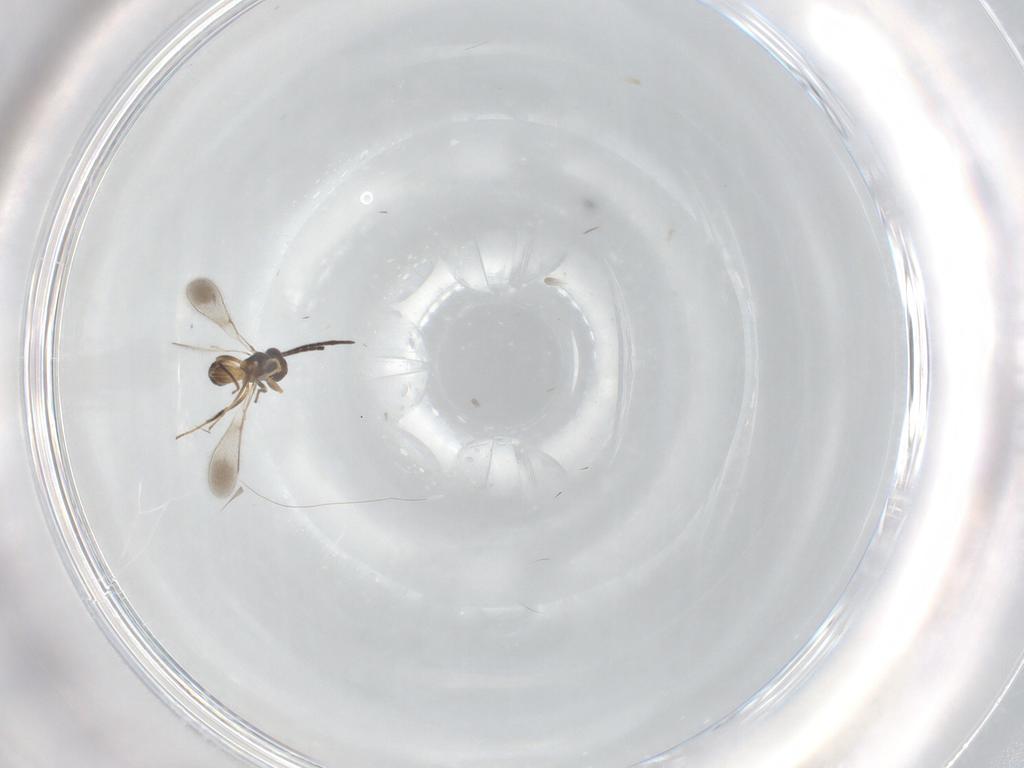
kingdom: Animalia
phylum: Arthropoda
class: Insecta
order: Hymenoptera
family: Mymaridae
